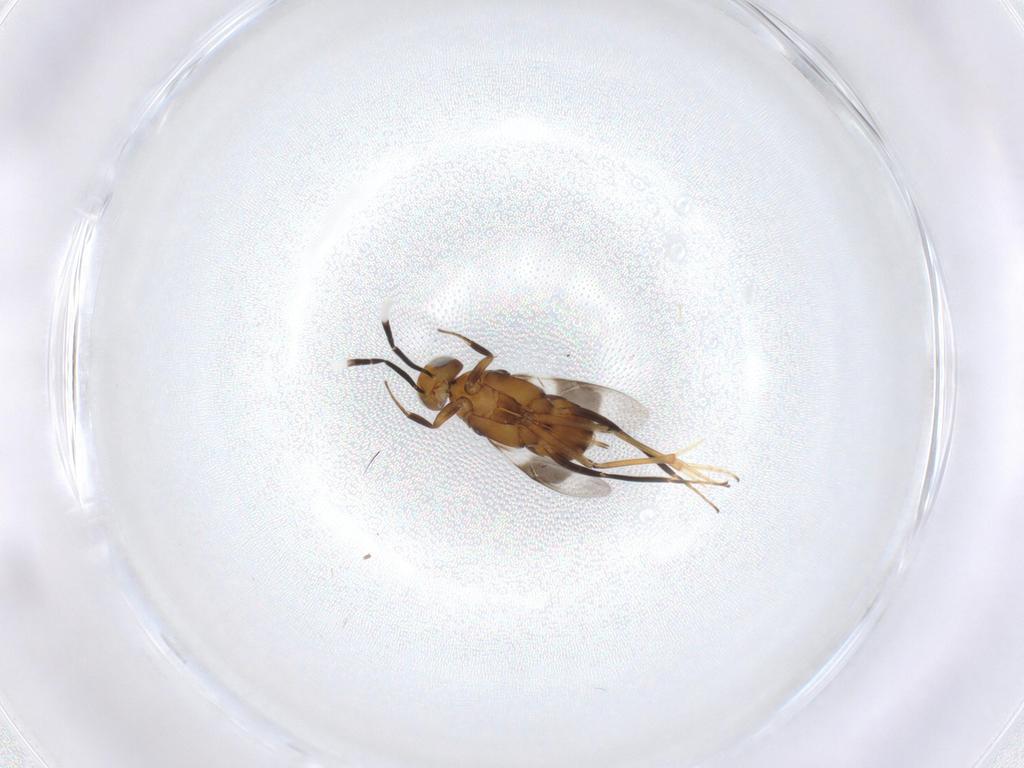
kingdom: Animalia
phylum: Arthropoda
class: Insecta
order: Hymenoptera
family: Encyrtidae
